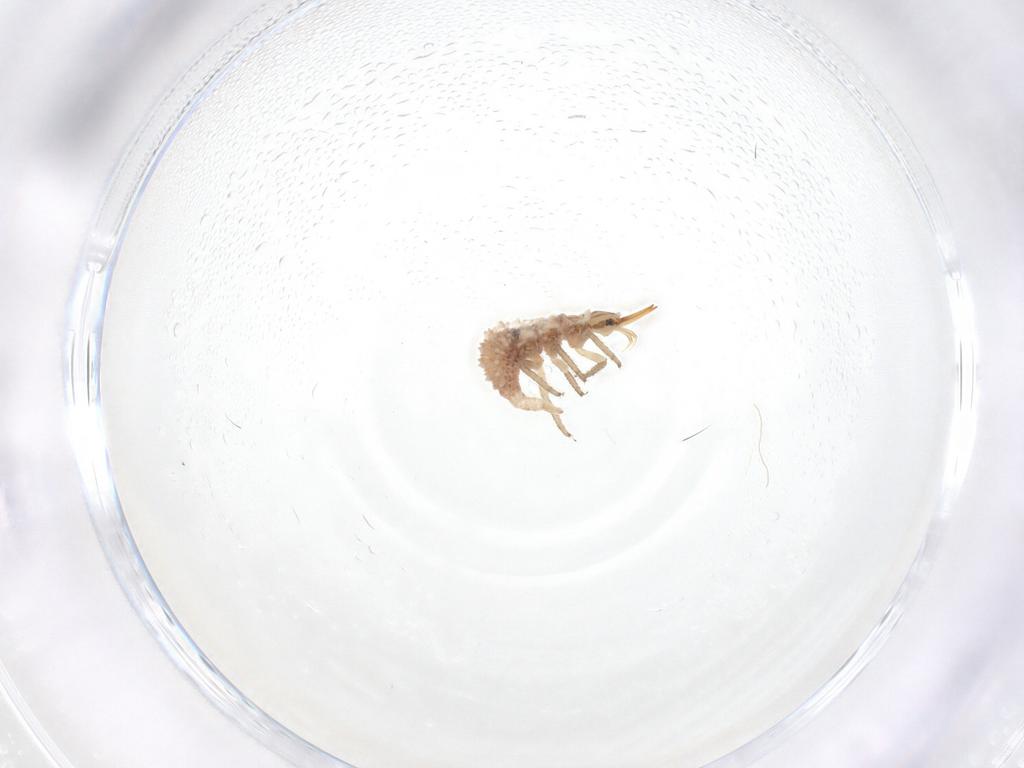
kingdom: Animalia
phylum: Arthropoda
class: Insecta
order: Neuroptera
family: Chrysopidae
